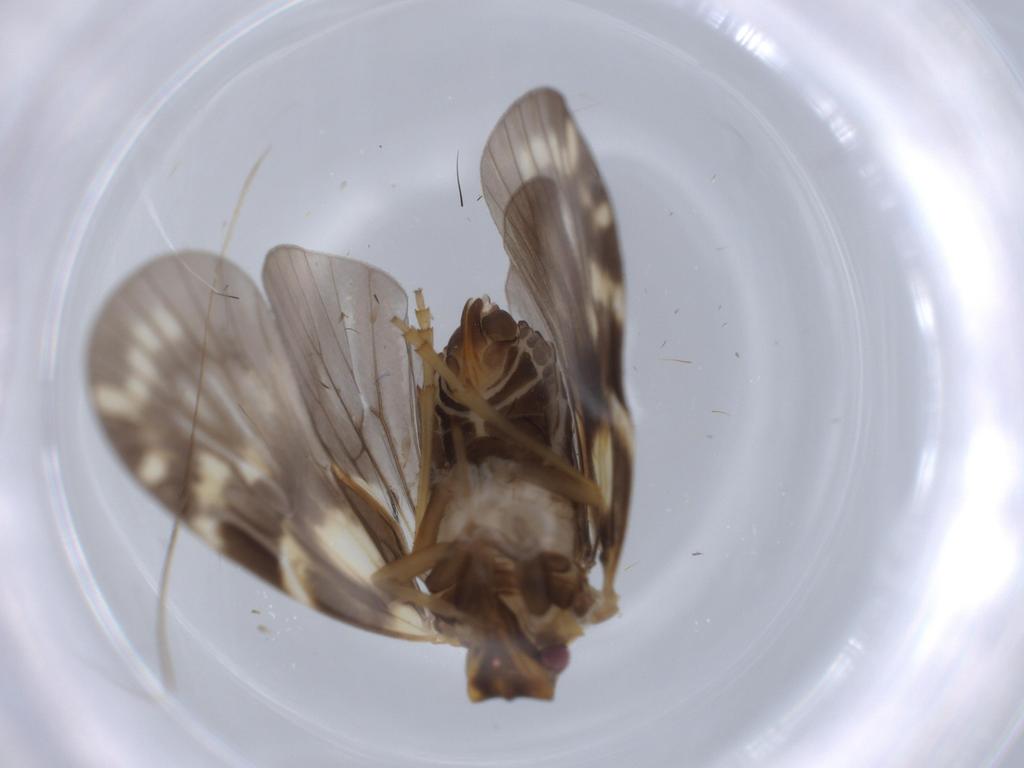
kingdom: Animalia
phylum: Arthropoda
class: Insecta
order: Hemiptera
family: Cixiidae
